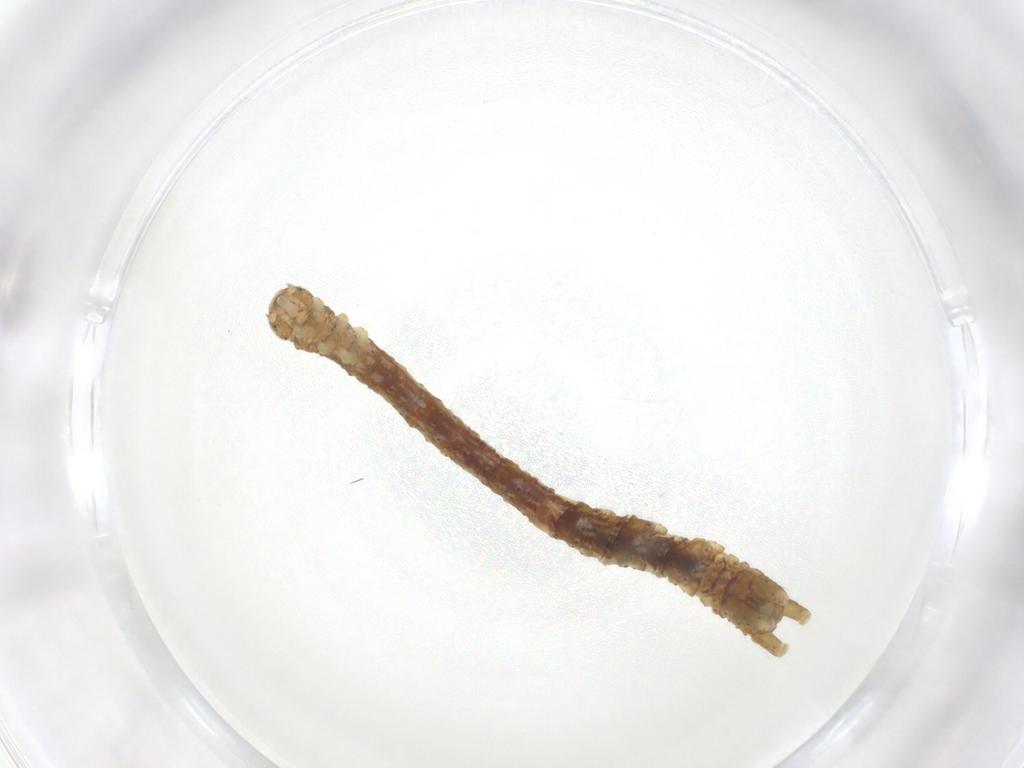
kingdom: Animalia
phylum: Arthropoda
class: Insecta
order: Lepidoptera
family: Geometridae
